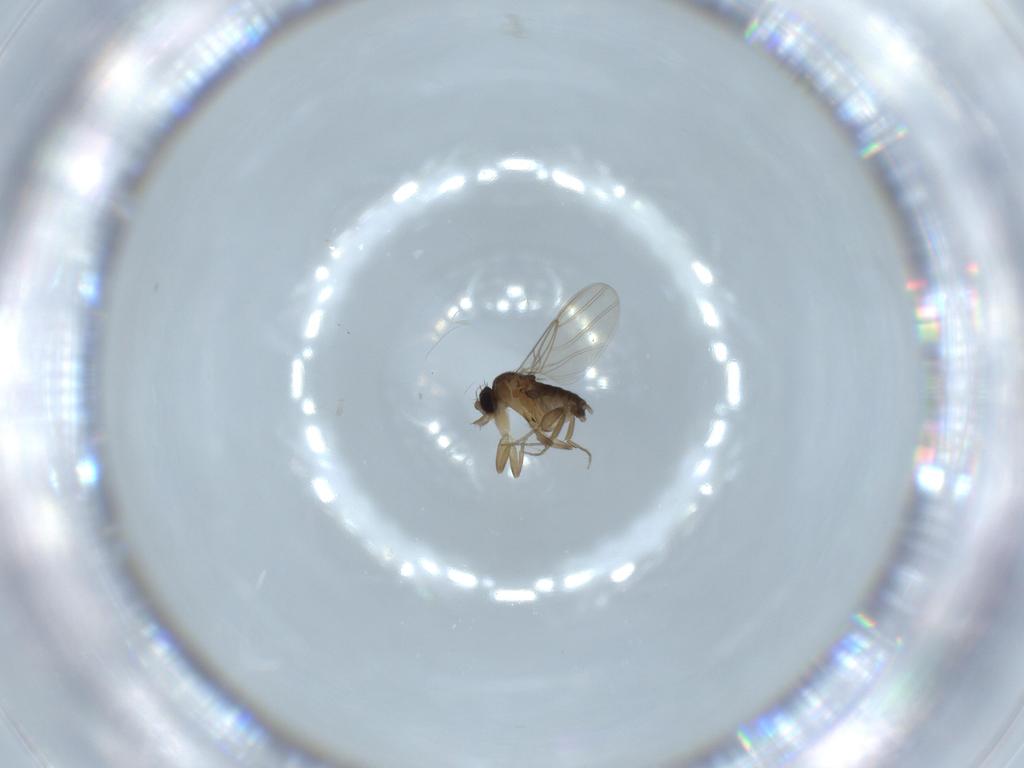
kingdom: Animalia
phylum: Arthropoda
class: Insecta
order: Diptera
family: Phoridae
